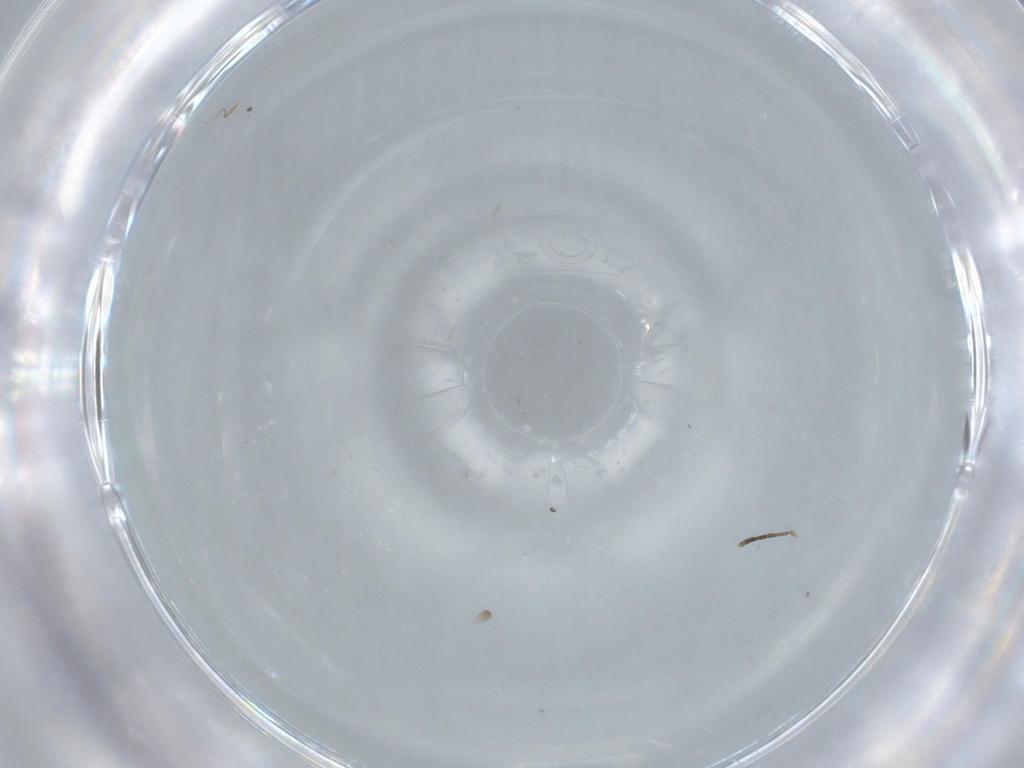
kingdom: Animalia
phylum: Arthropoda
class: Insecta
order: Diptera
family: Psychodidae
